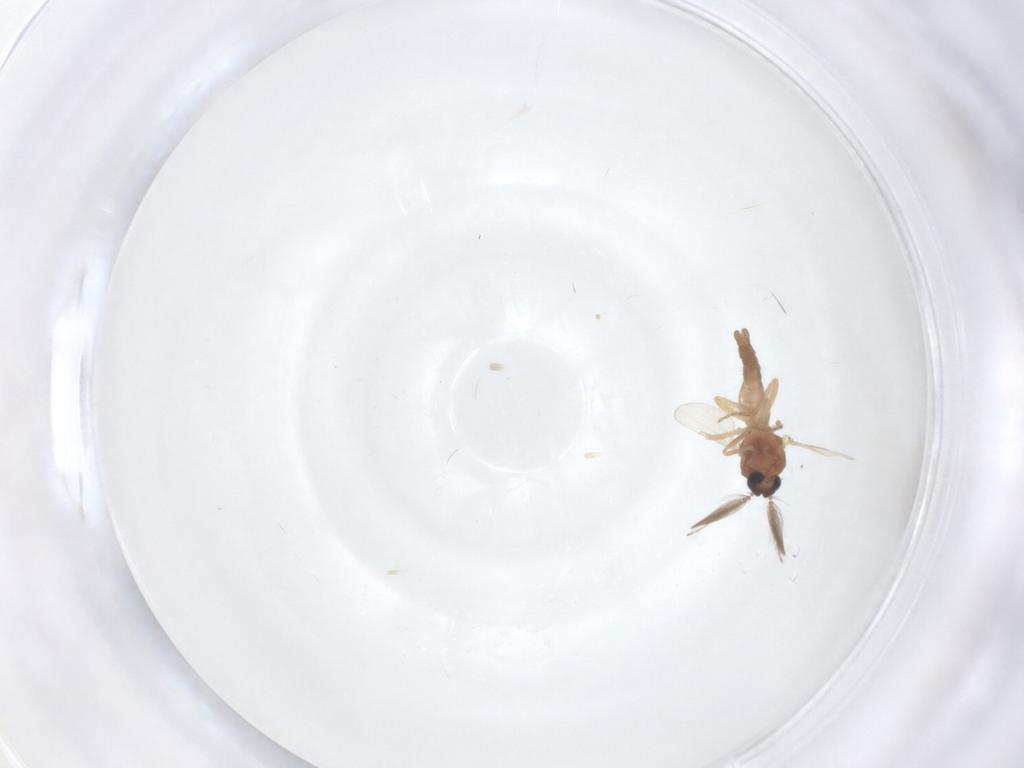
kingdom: Animalia
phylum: Arthropoda
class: Insecta
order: Diptera
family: Ceratopogonidae
